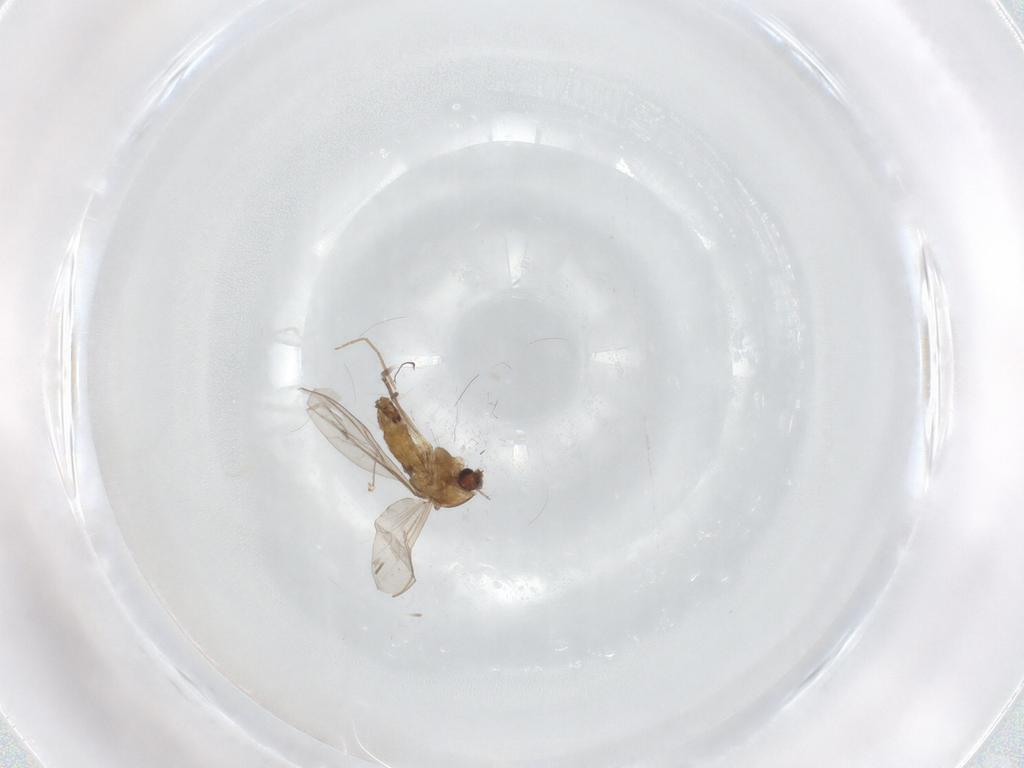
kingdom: Animalia
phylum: Arthropoda
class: Insecta
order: Diptera
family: Chironomidae
